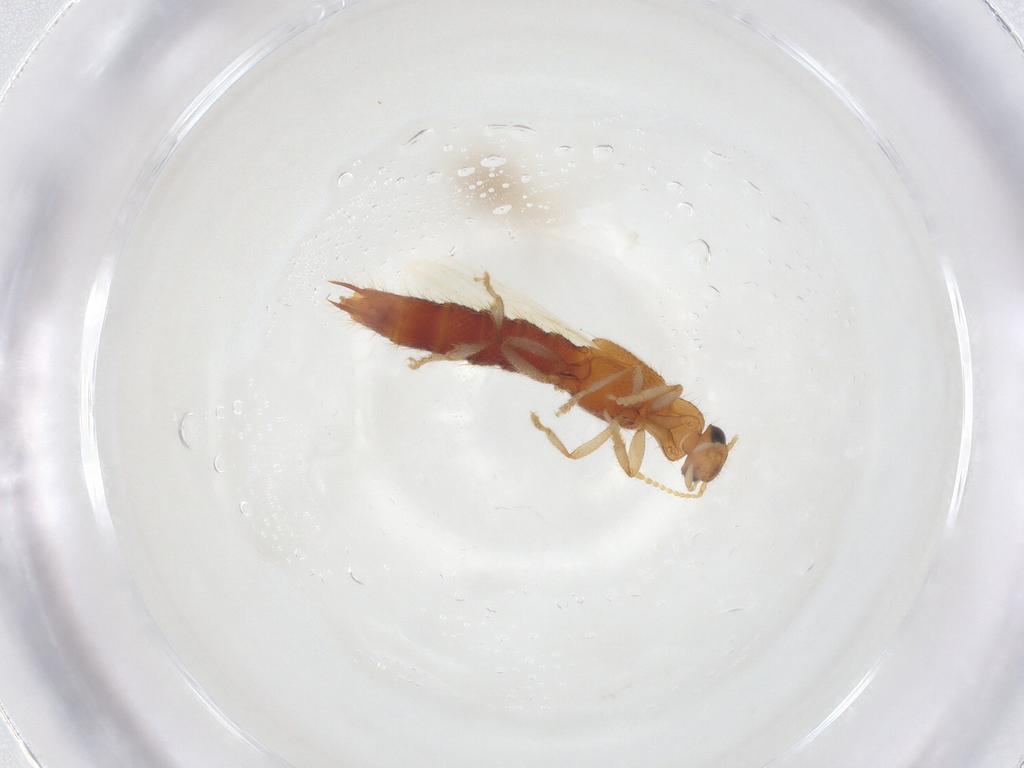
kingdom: Animalia
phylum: Arthropoda
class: Insecta
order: Coleoptera
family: Staphylinidae
